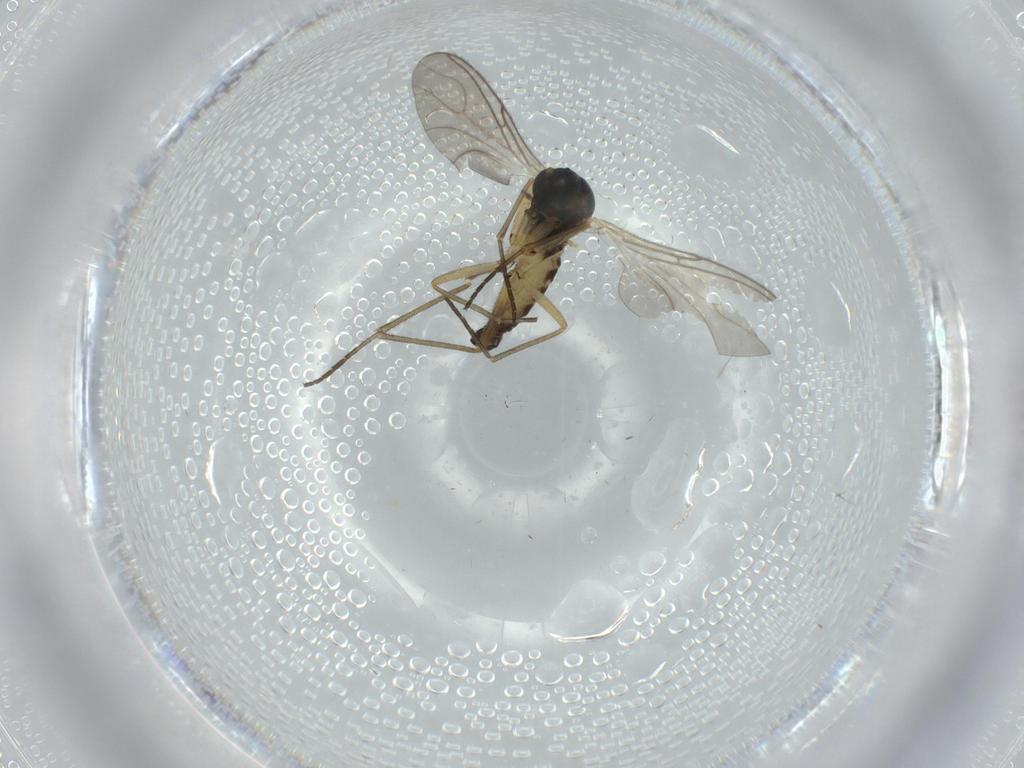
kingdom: Animalia
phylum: Arthropoda
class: Insecta
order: Diptera
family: Sciaridae
